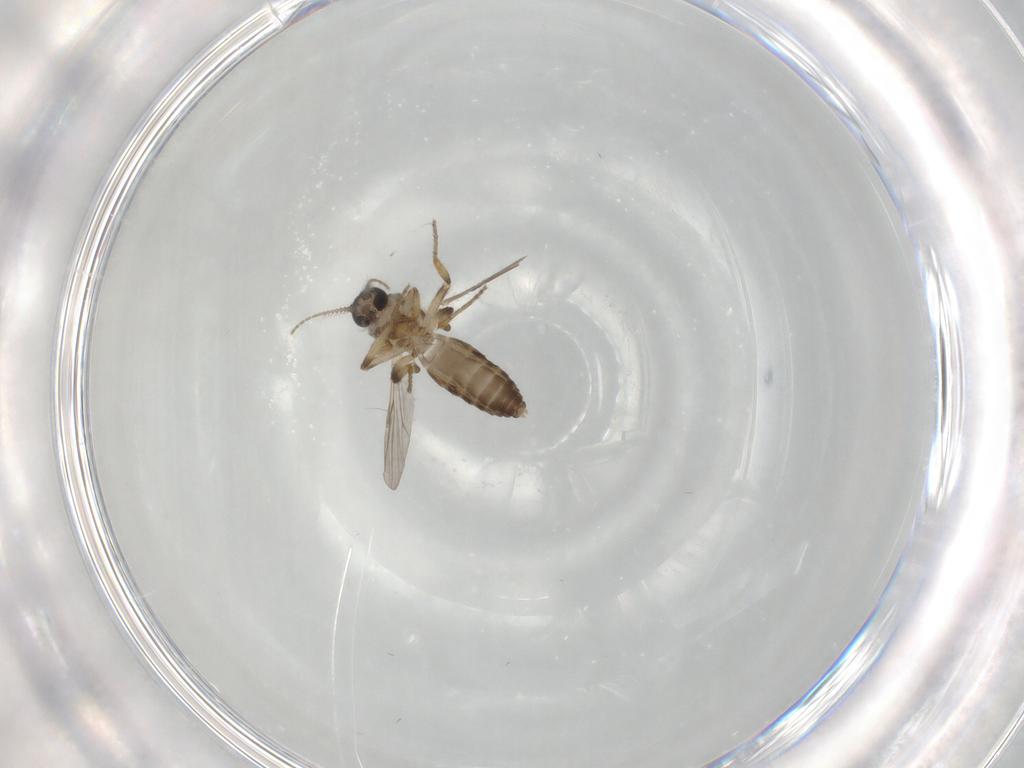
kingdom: Animalia
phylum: Arthropoda
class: Insecta
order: Diptera
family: Ceratopogonidae
